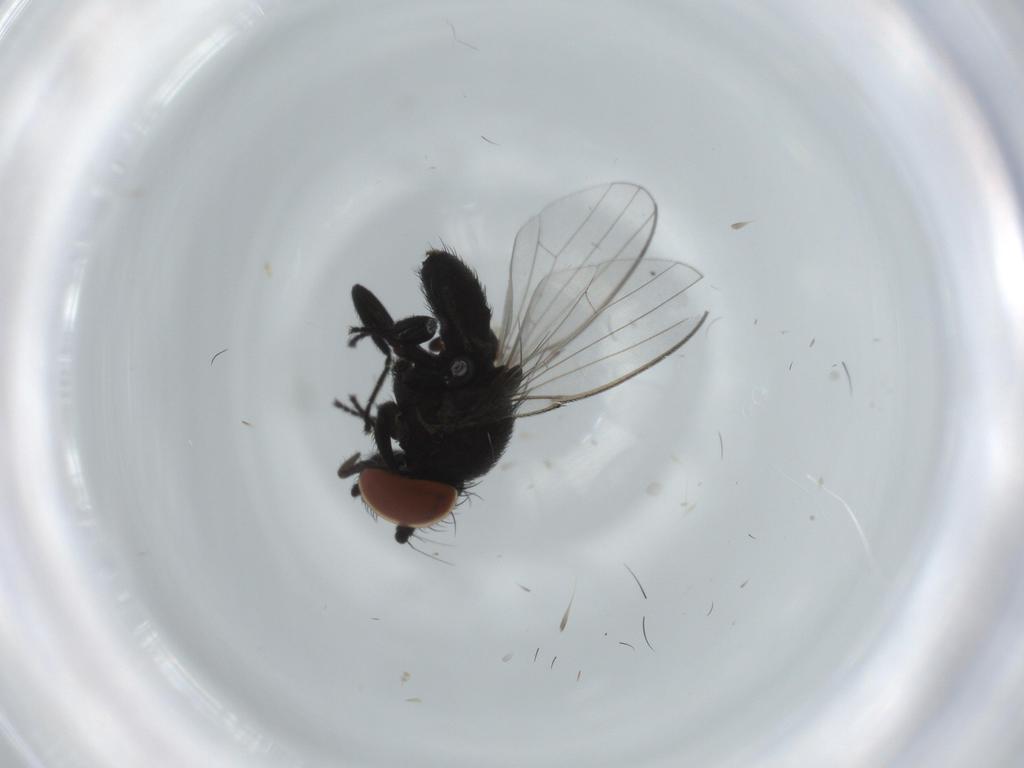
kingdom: Animalia
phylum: Arthropoda
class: Insecta
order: Diptera
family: Milichiidae
